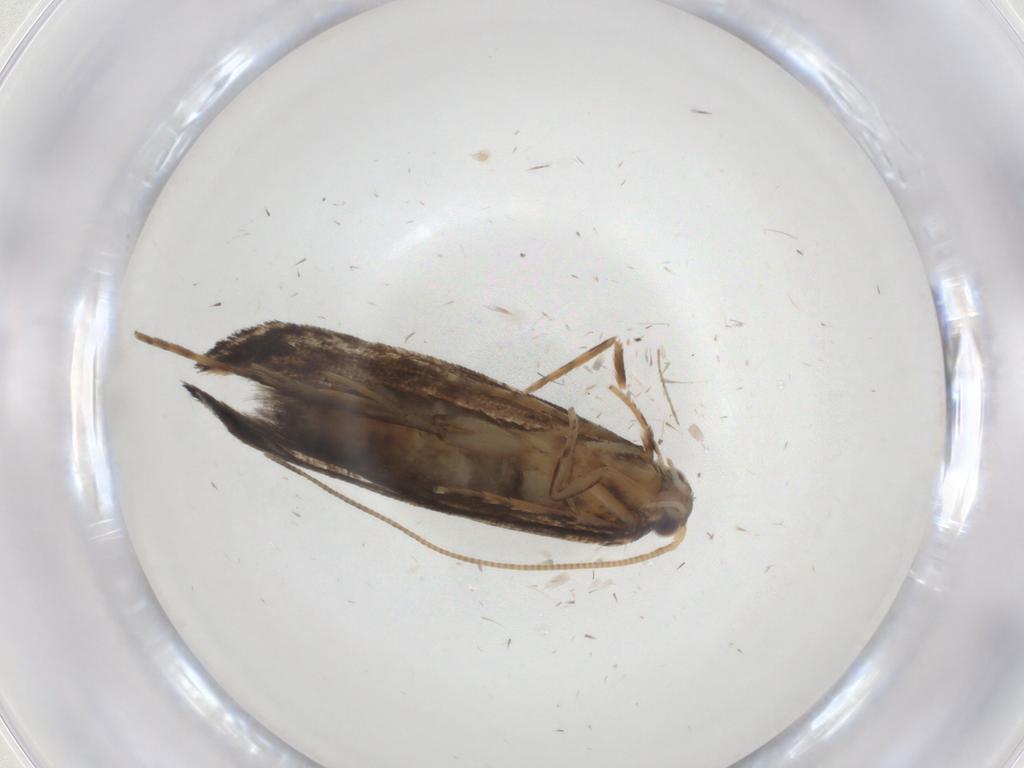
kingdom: Animalia
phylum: Arthropoda
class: Insecta
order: Lepidoptera
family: Tineidae
